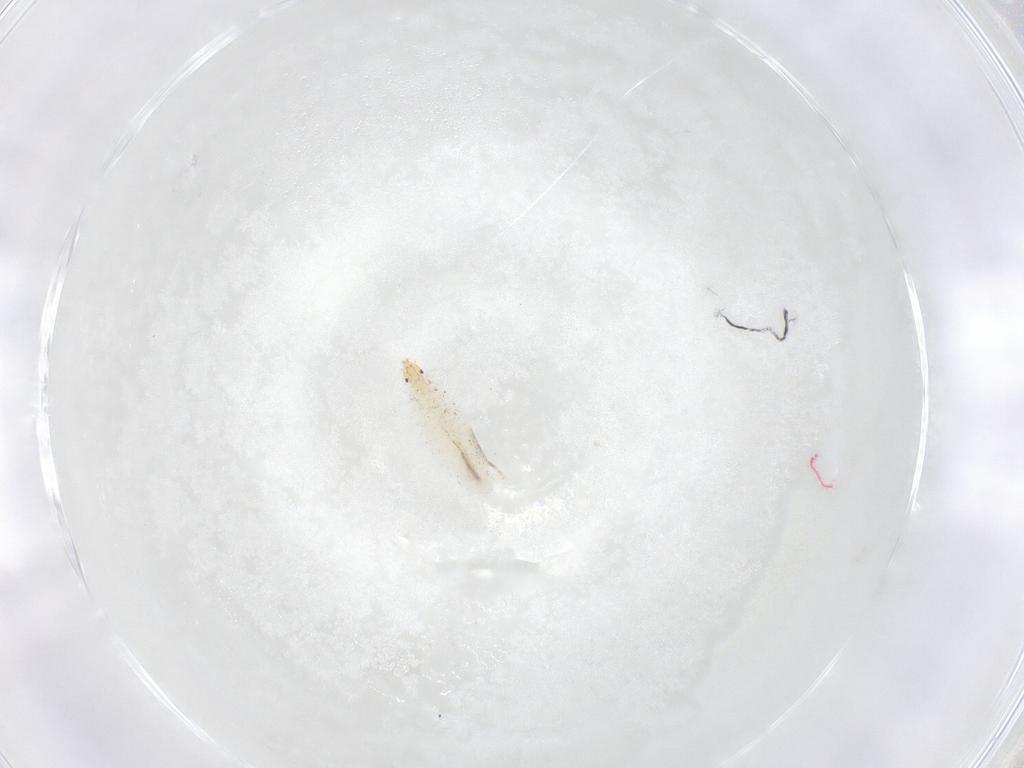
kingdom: Animalia
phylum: Arthropoda
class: Insecta
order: Diptera
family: Stratiomyidae
